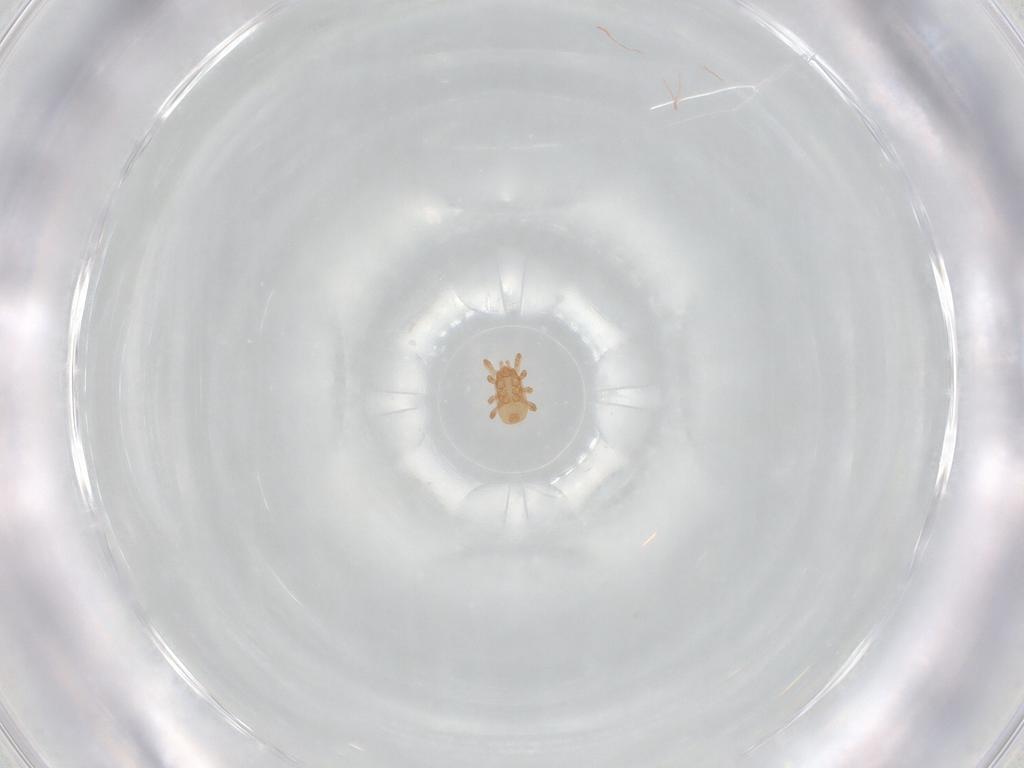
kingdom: Animalia
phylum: Arthropoda
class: Arachnida
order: Mesostigmata
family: Ascidae
